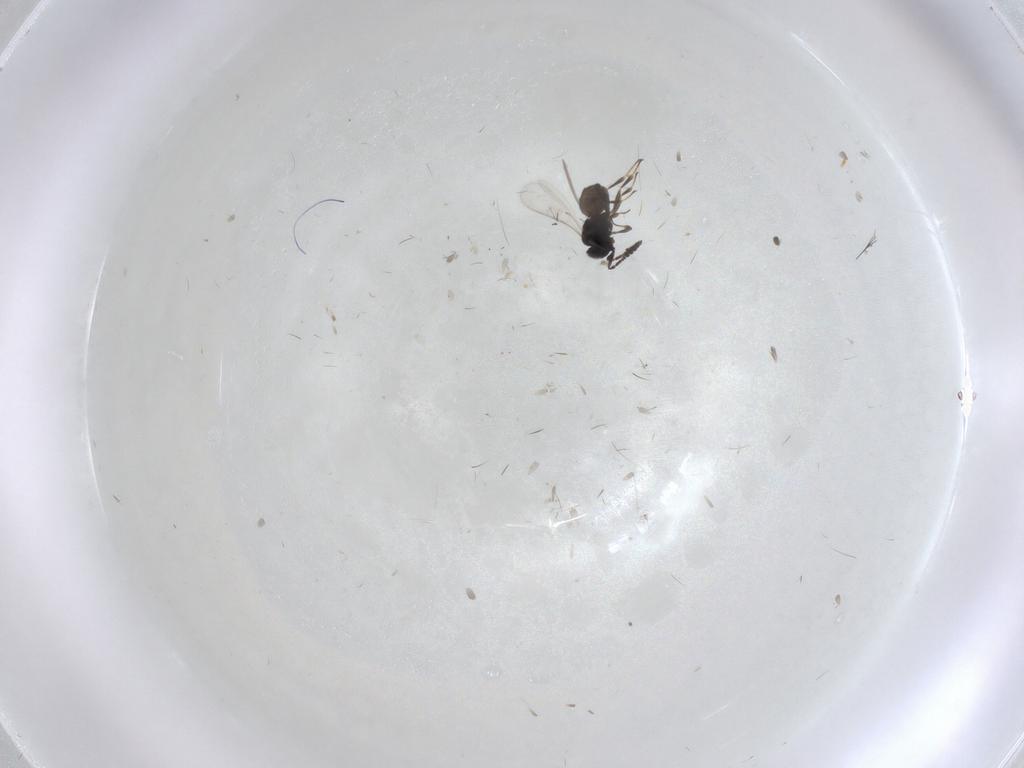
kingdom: Animalia
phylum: Arthropoda
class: Insecta
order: Hymenoptera
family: Scelionidae
